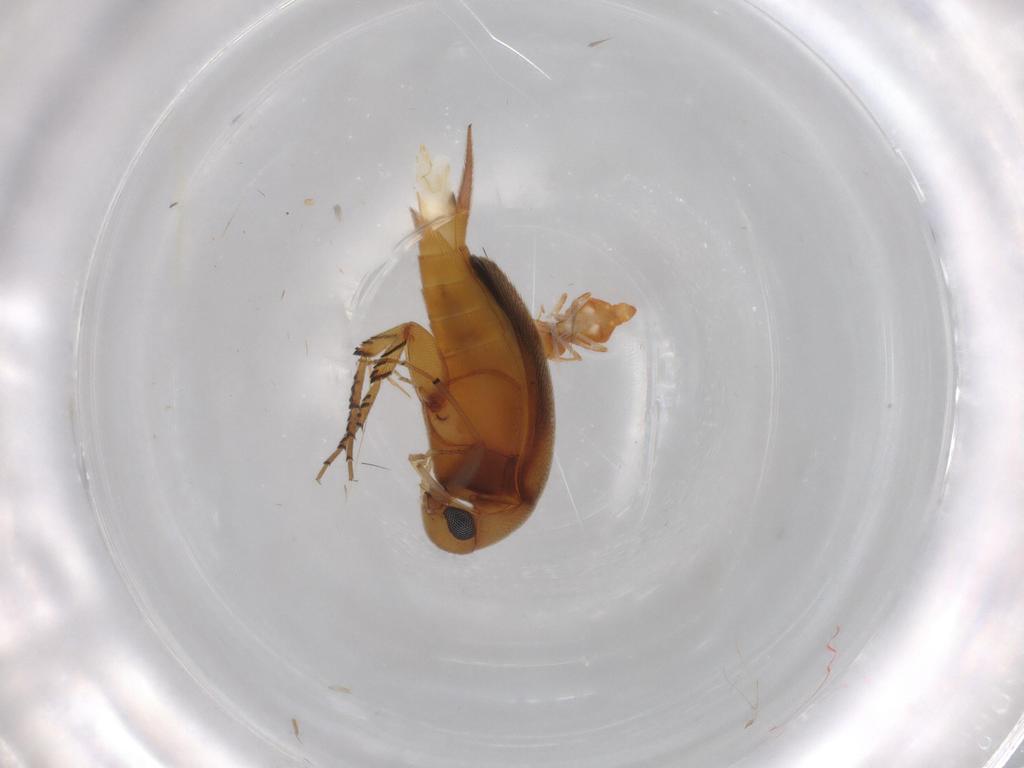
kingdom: Animalia
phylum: Arthropoda
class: Insecta
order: Coleoptera
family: Mordellidae
